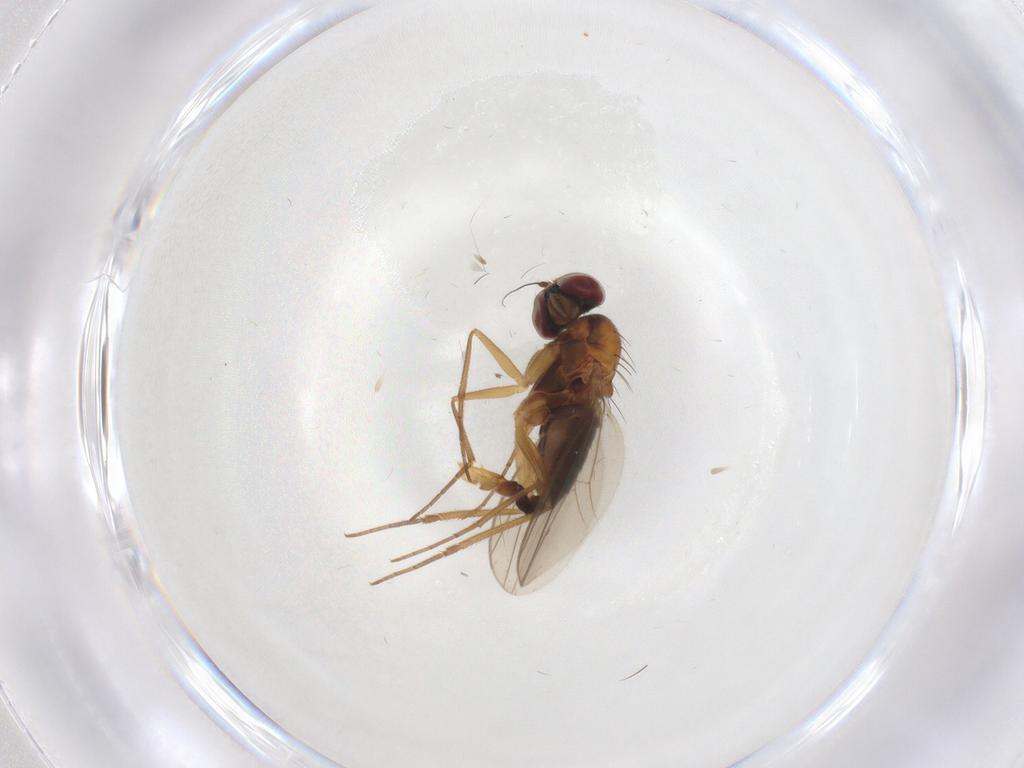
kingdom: Animalia
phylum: Arthropoda
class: Insecta
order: Diptera
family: Dolichopodidae
